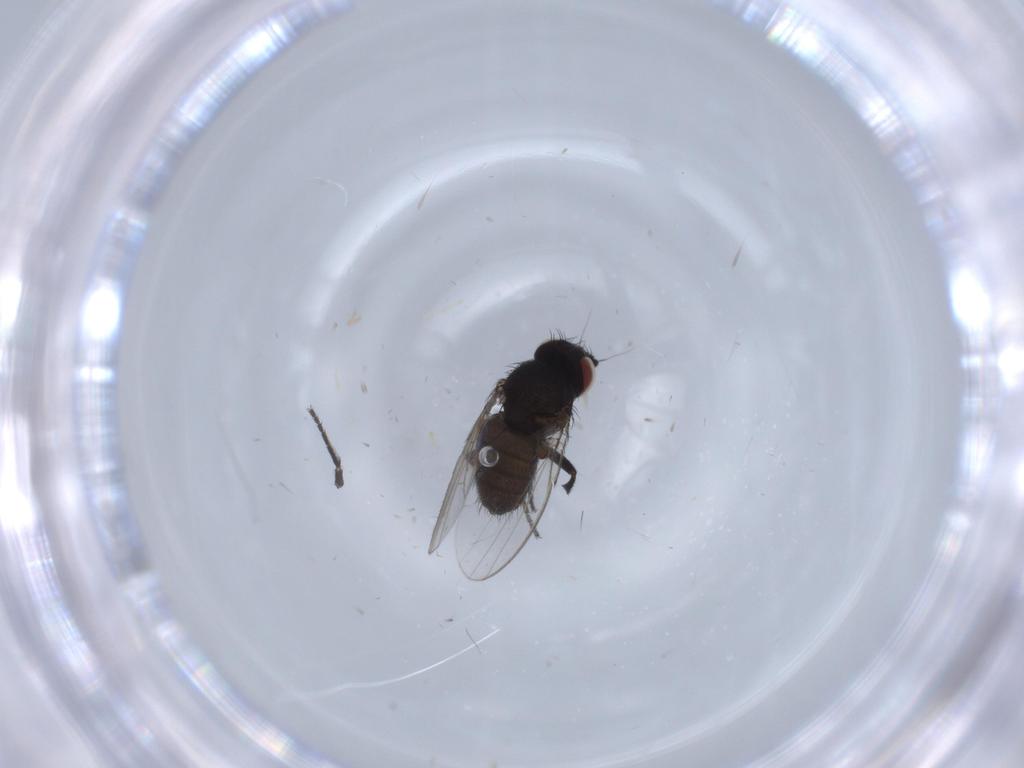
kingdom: Animalia
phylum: Arthropoda
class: Insecta
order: Diptera
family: Milichiidae
